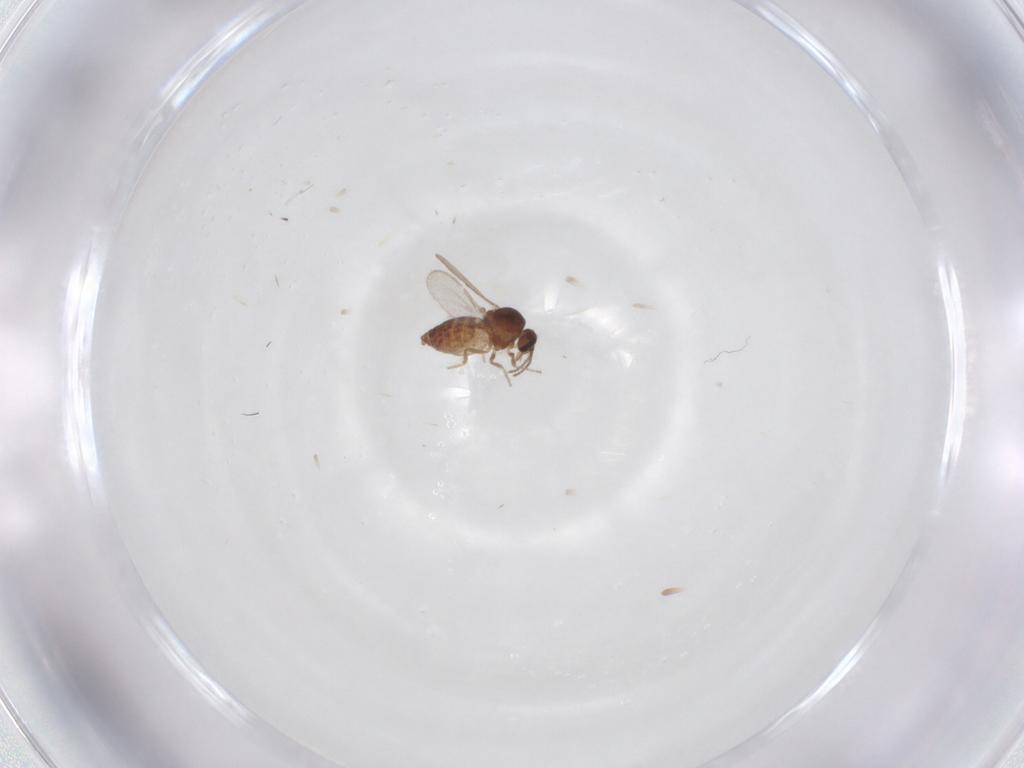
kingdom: Animalia
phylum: Arthropoda
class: Insecta
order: Diptera
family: Ceratopogonidae
